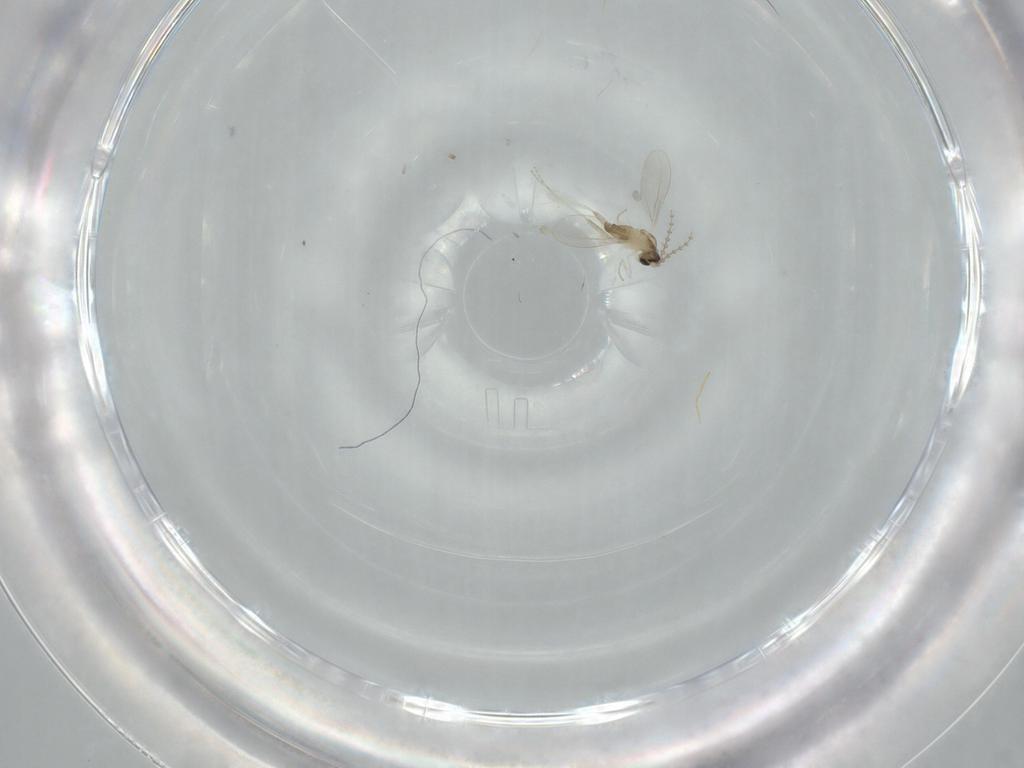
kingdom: Animalia
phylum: Arthropoda
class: Insecta
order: Diptera
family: Cecidomyiidae
